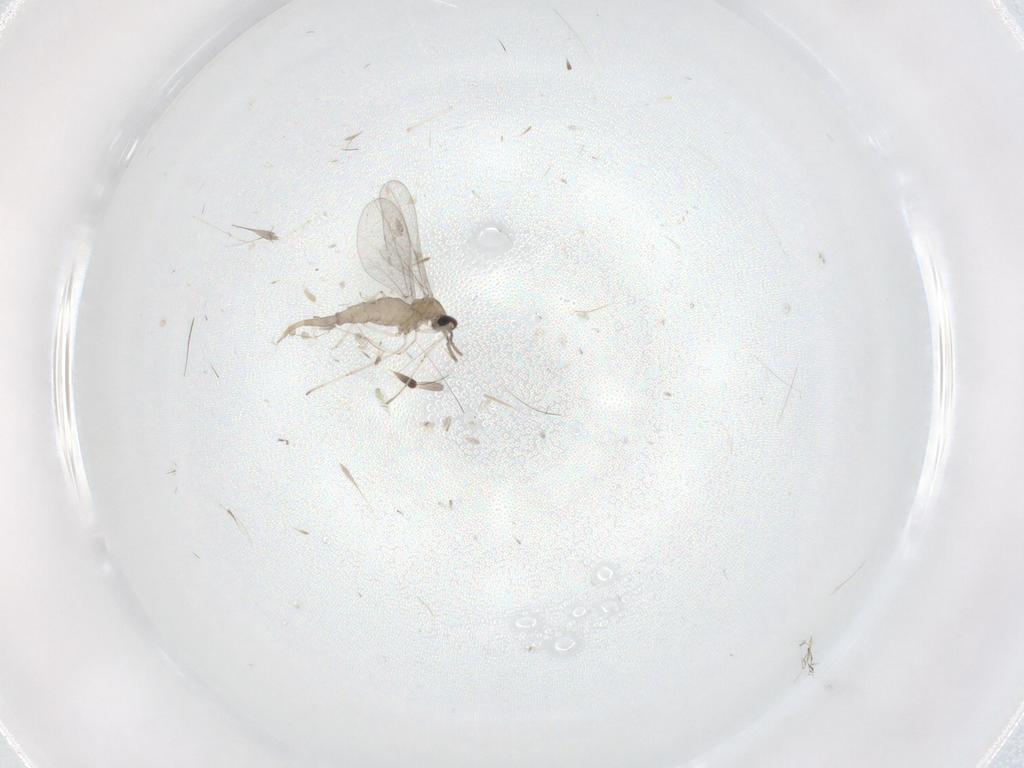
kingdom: Animalia
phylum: Arthropoda
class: Insecta
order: Diptera
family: Cecidomyiidae
